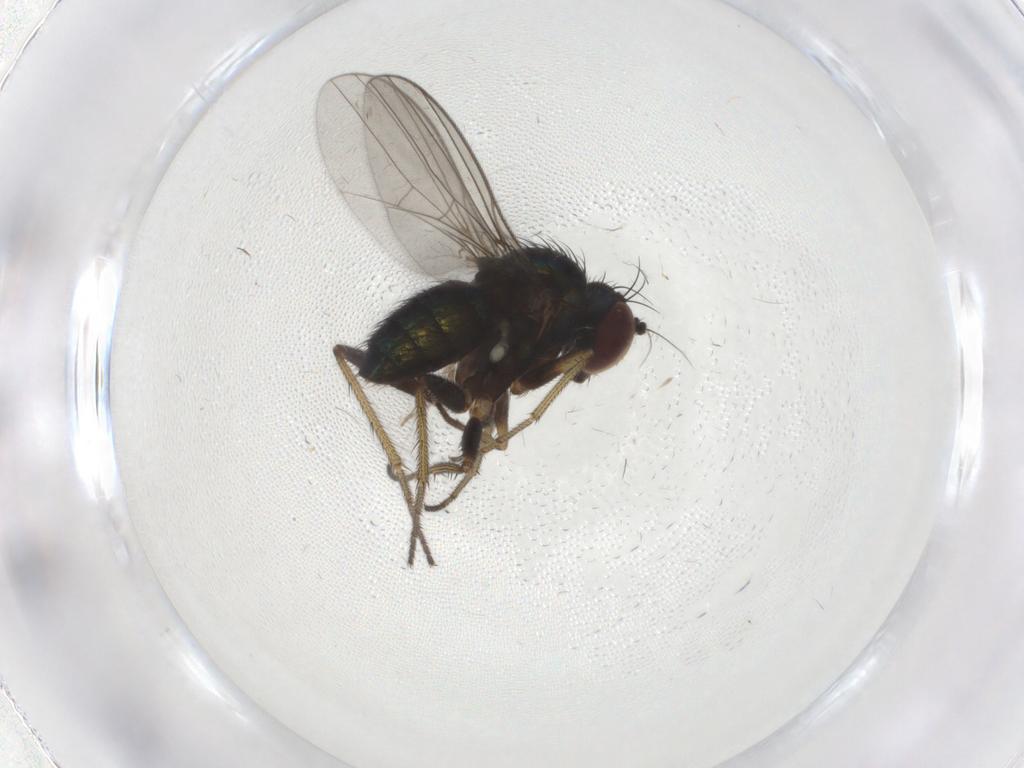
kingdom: Animalia
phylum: Arthropoda
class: Insecta
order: Diptera
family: Dolichopodidae
